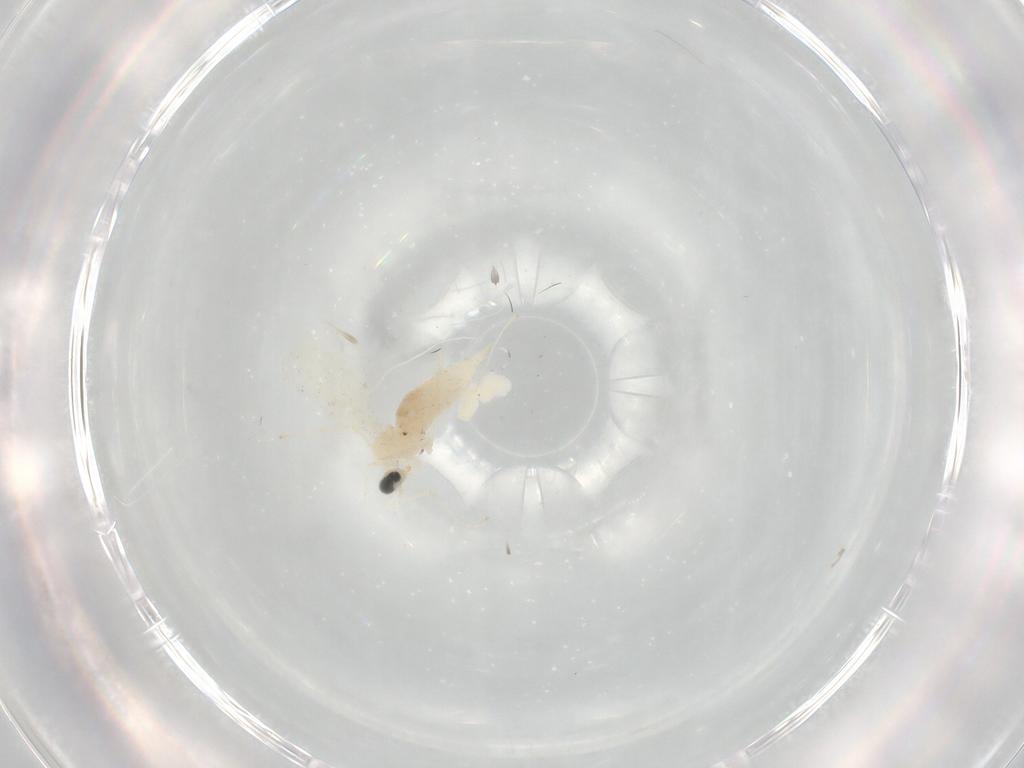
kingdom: Animalia
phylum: Arthropoda
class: Insecta
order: Diptera
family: Cecidomyiidae
